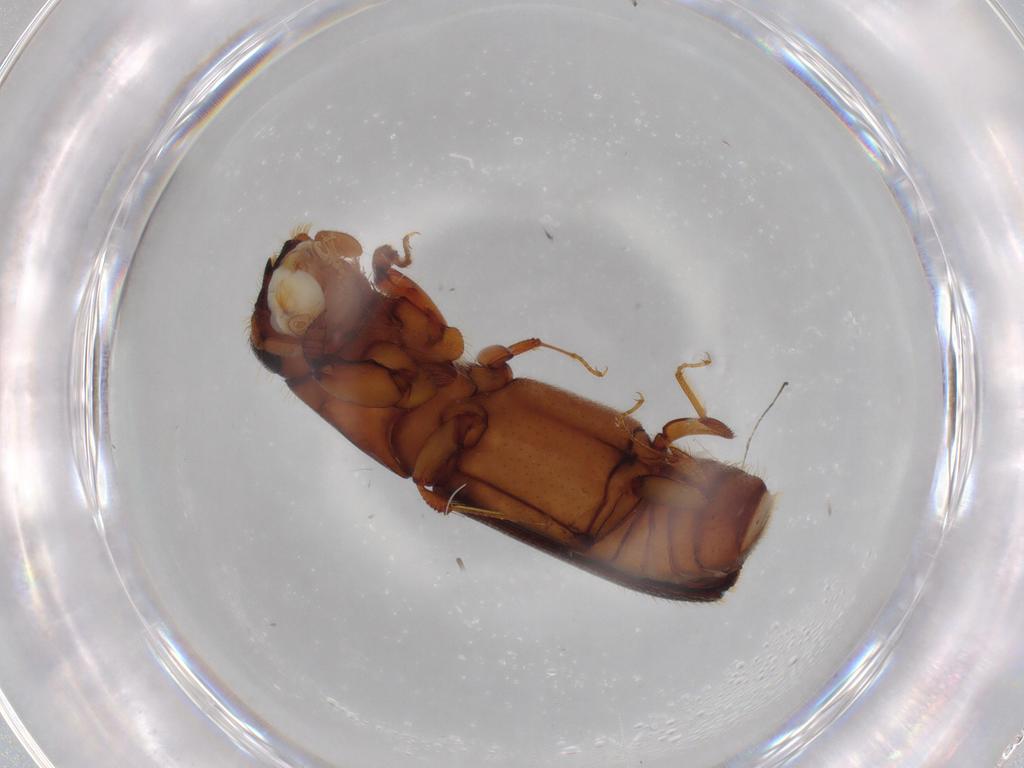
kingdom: Animalia
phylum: Arthropoda
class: Insecta
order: Coleoptera
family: Curculionidae
